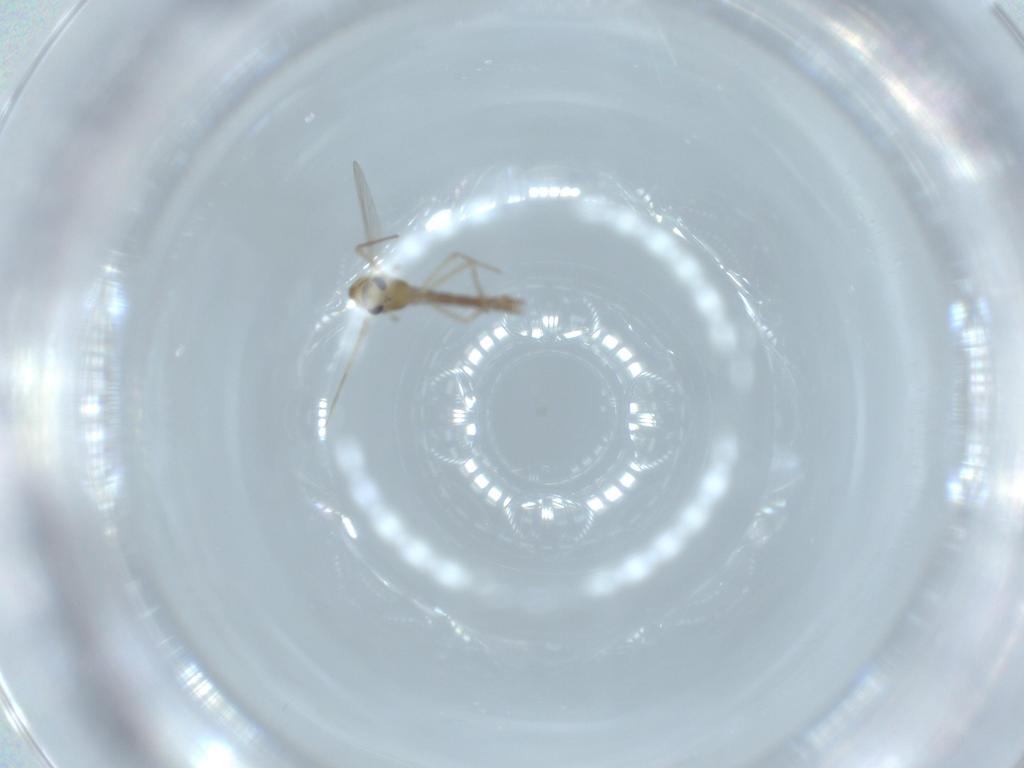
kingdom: Animalia
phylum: Arthropoda
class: Insecta
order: Diptera
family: Chironomidae
